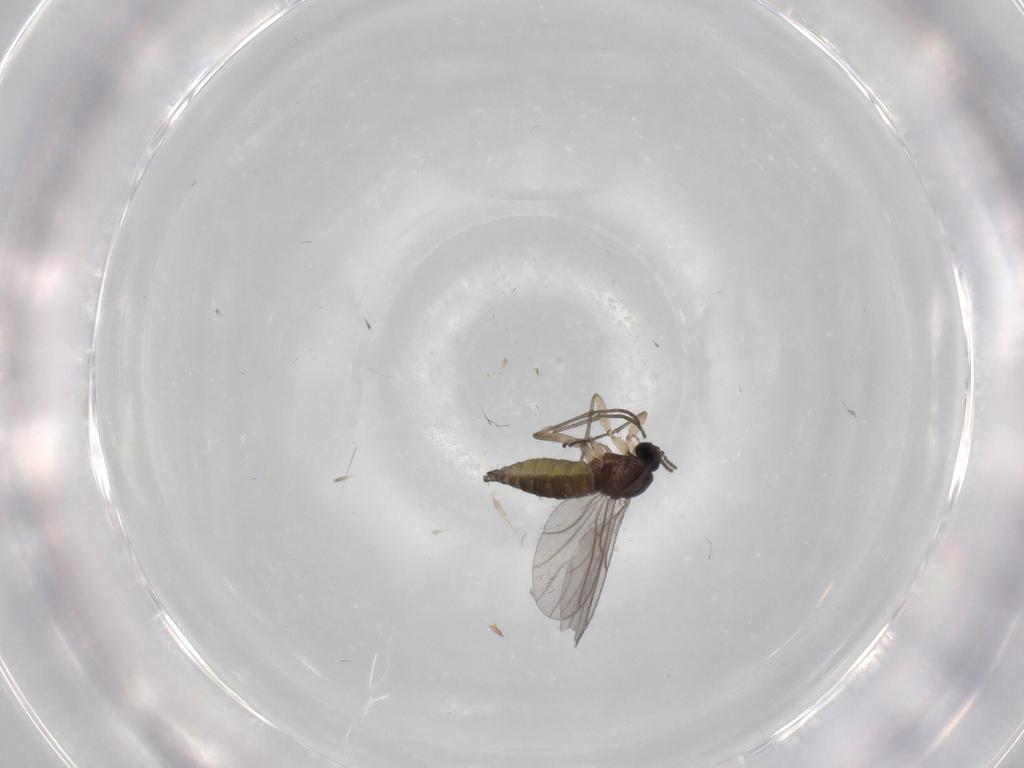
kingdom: Animalia
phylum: Arthropoda
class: Insecta
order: Diptera
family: Sciaridae
